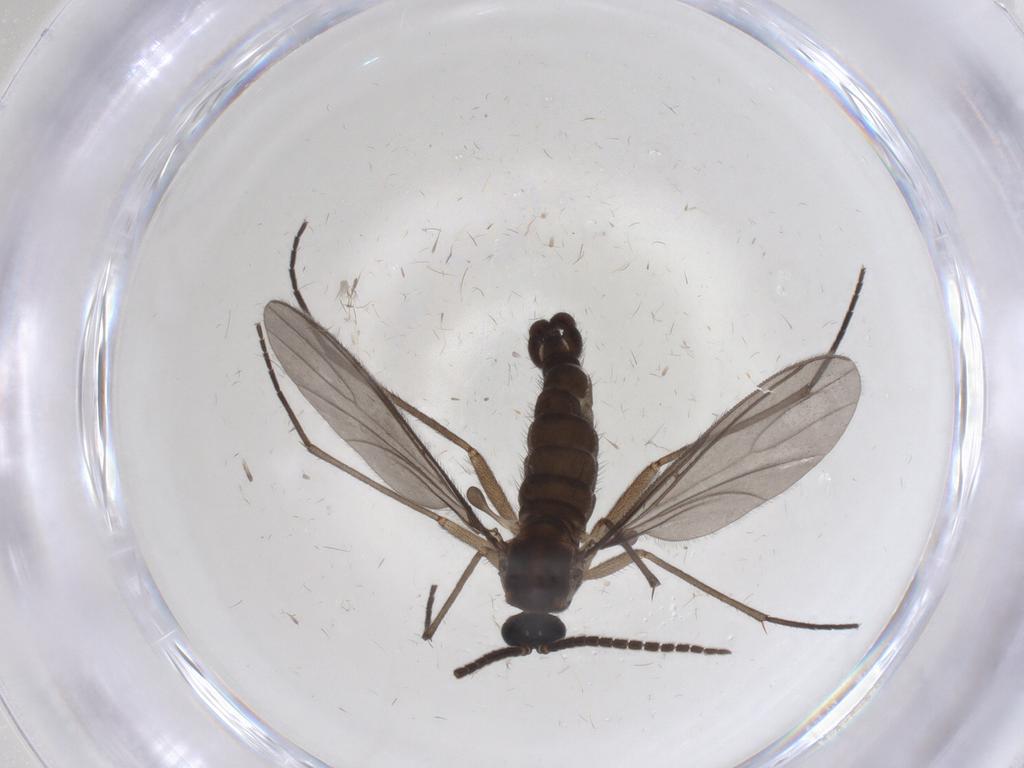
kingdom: Animalia
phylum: Arthropoda
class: Insecta
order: Diptera
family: Sciaridae
